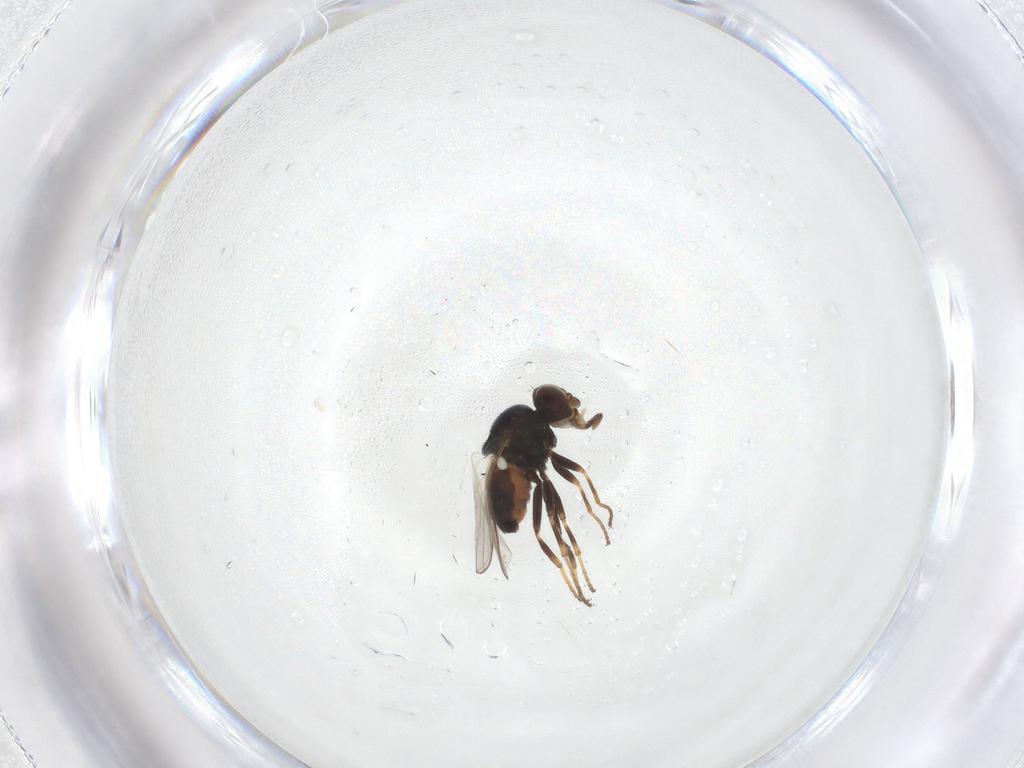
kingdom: Animalia
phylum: Arthropoda
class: Insecta
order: Diptera
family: Chloropidae
